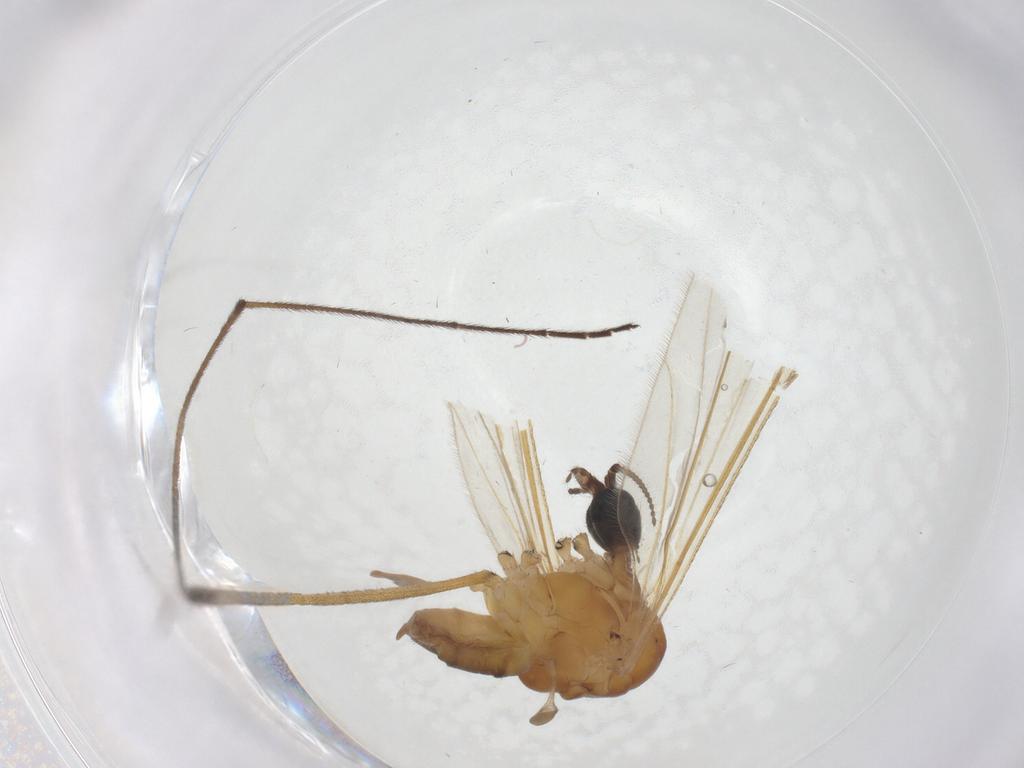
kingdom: Animalia
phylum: Arthropoda
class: Insecta
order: Diptera
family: Limoniidae
